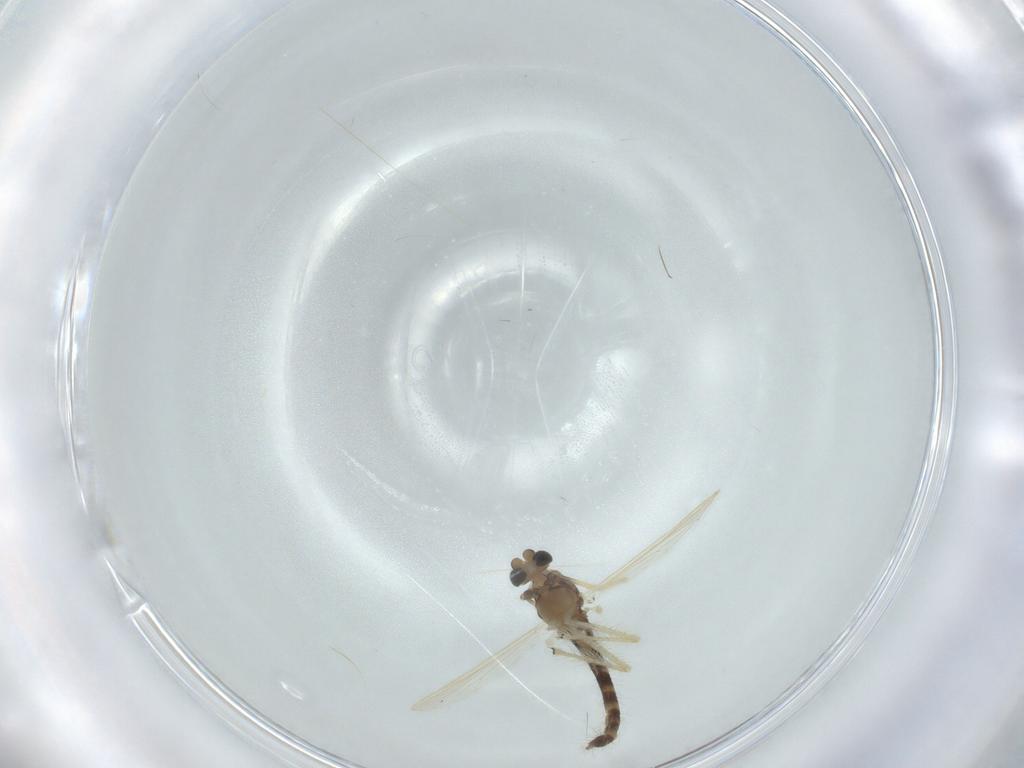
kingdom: Animalia
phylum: Arthropoda
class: Insecta
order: Diptera
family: Chironomidae
